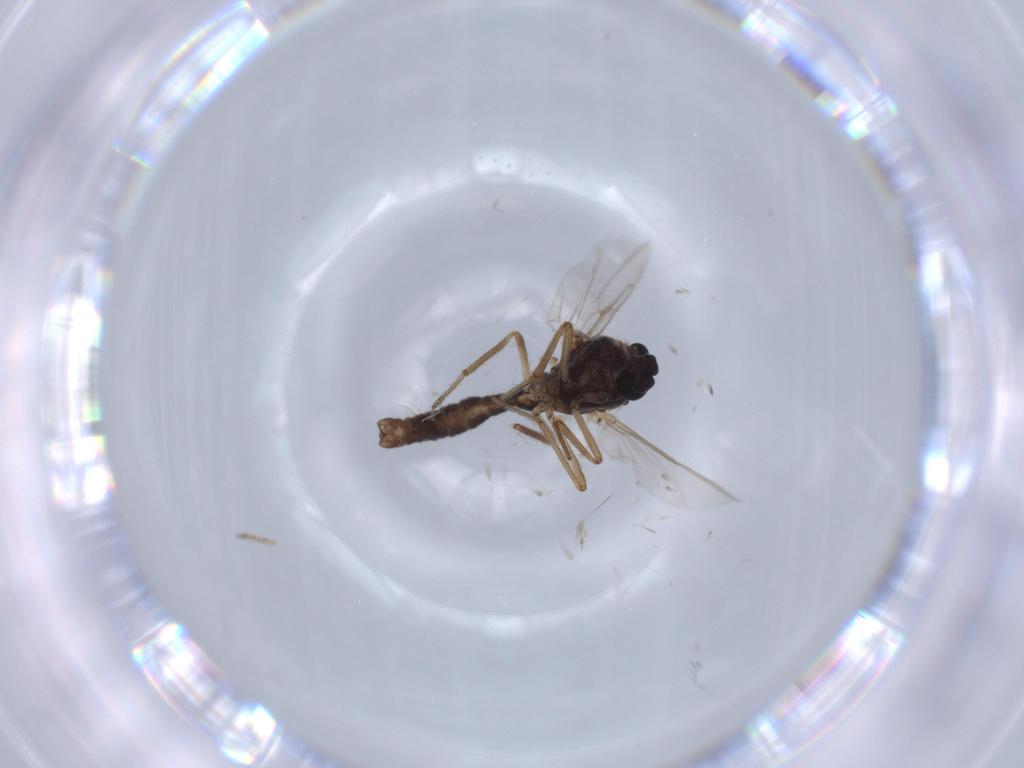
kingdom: Animalia
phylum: Arthropoda
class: Insecta
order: Diptera
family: Ceratopogonidae
